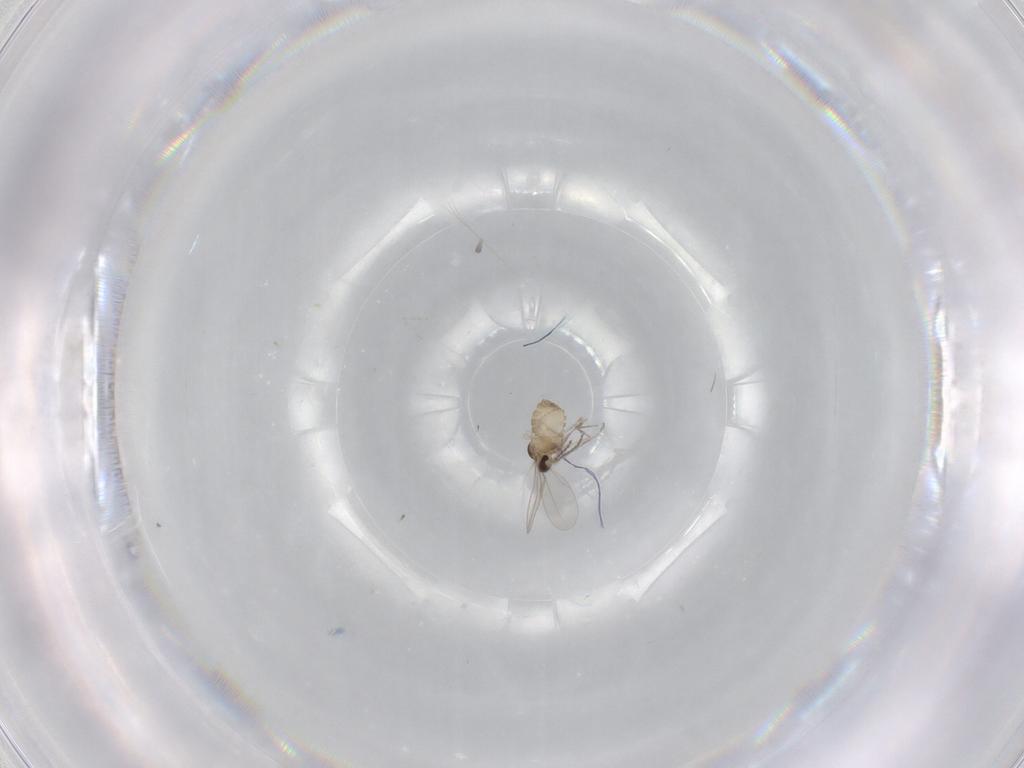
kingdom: Animalia
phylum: Arthropoda
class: Insecta
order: Diptera
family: Cecidomyiidae
